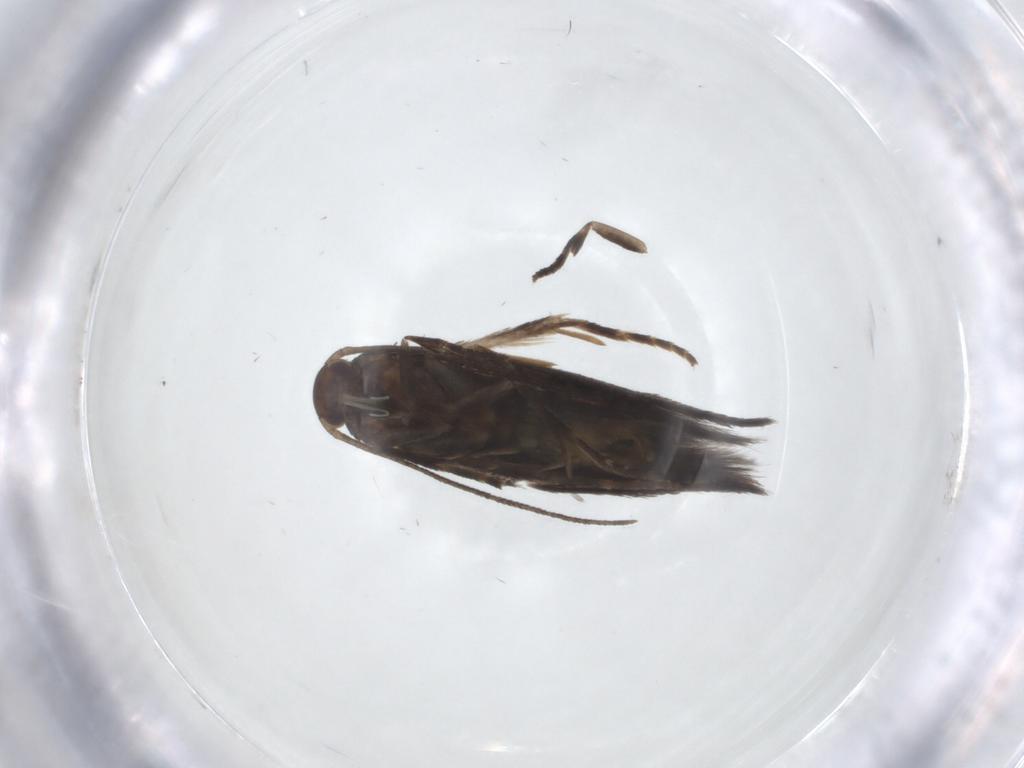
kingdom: Animalia
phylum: Arthropoda
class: Insecta
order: Lepidoptera
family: Elachistidae
